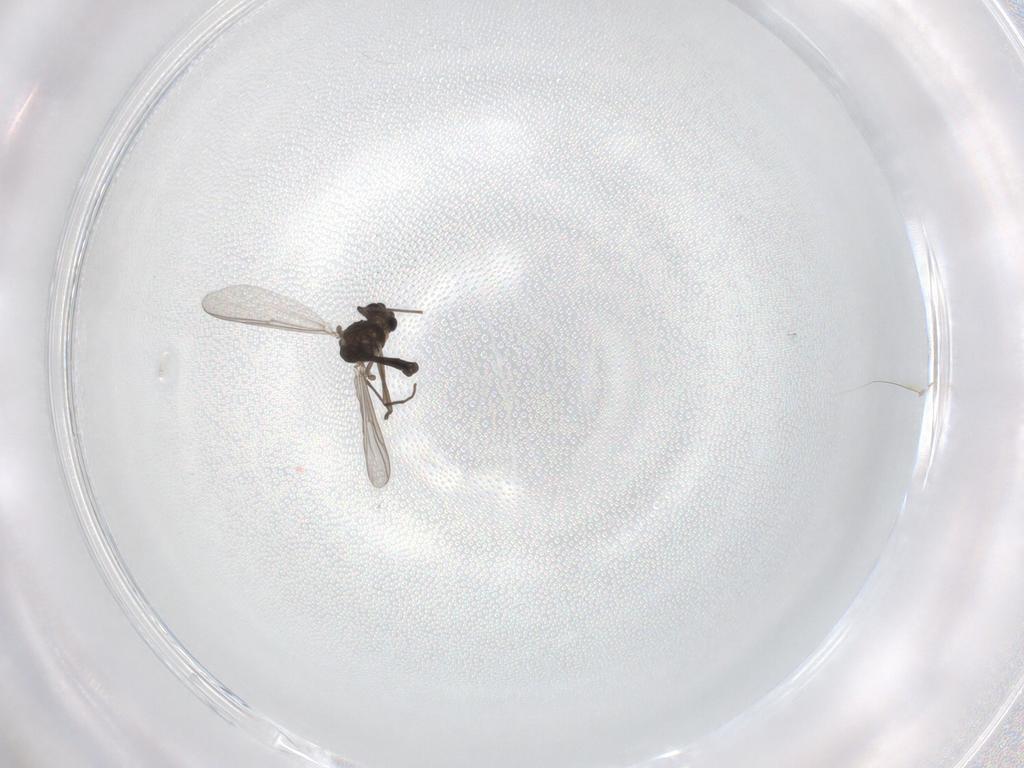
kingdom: Animalia
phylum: Arthropoda
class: Insecta
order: Diptera
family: Chironomidae
